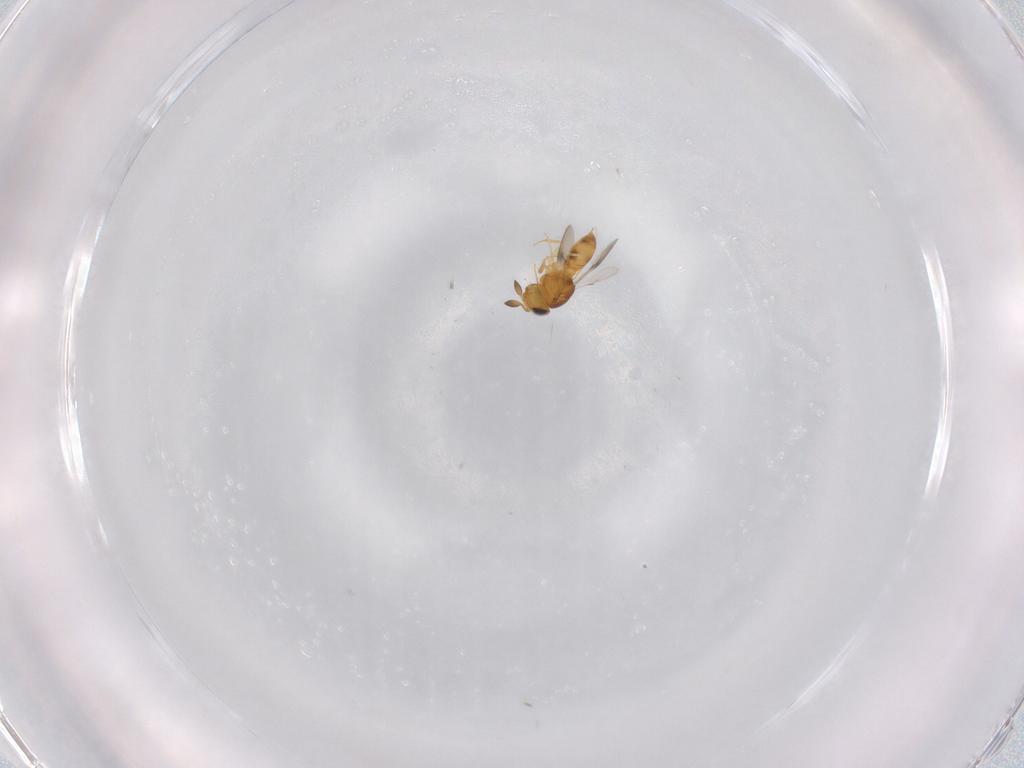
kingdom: Animalia
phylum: Arthropoda
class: Insecta
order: Hymenoptera
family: Scelionidae
